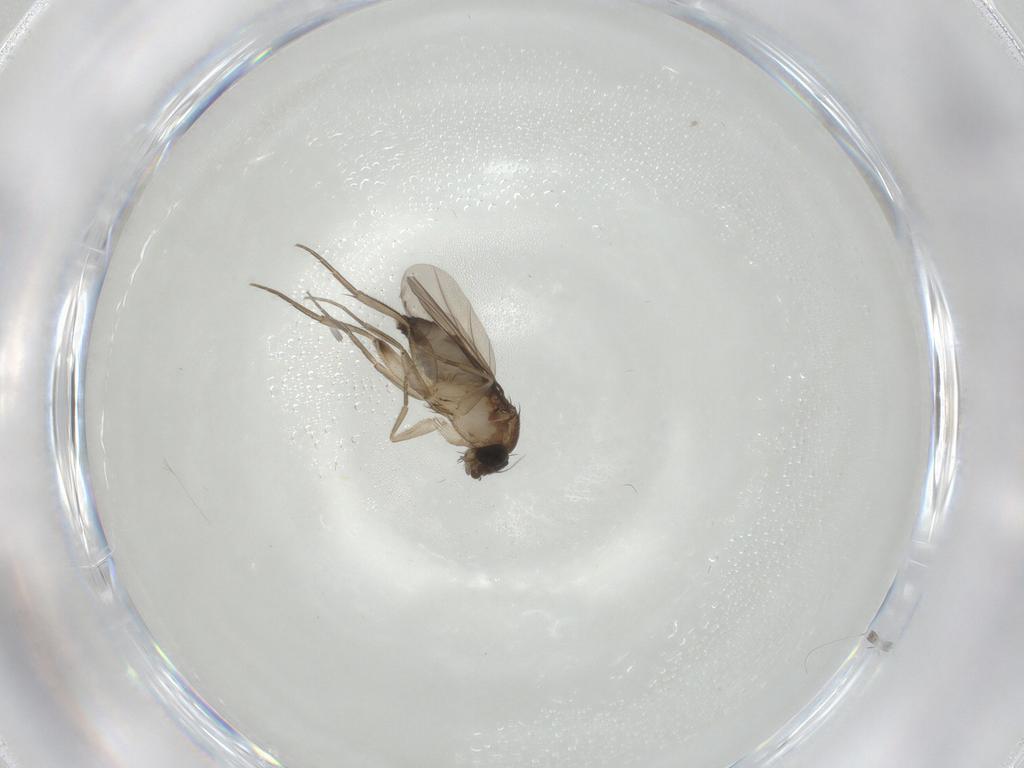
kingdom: Animalia
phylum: Arthropoda
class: Insecta
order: Diptera
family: Phoridae
